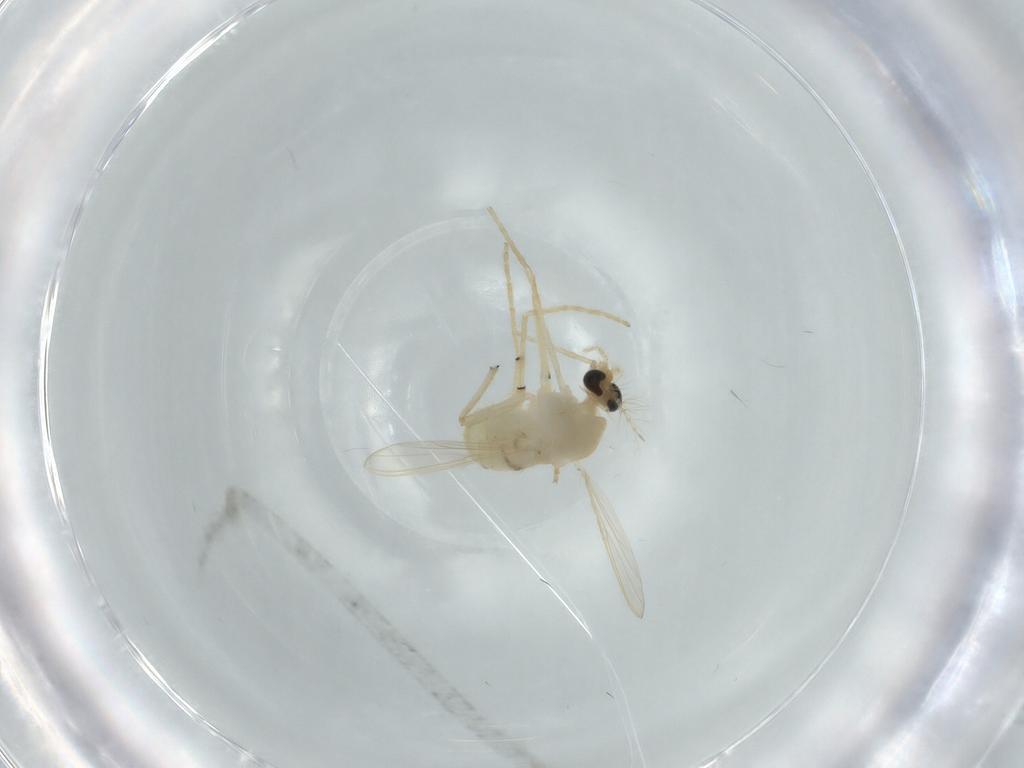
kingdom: Animalia
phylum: Arthropoda
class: Insecta
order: Diptera
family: Chironomidae
